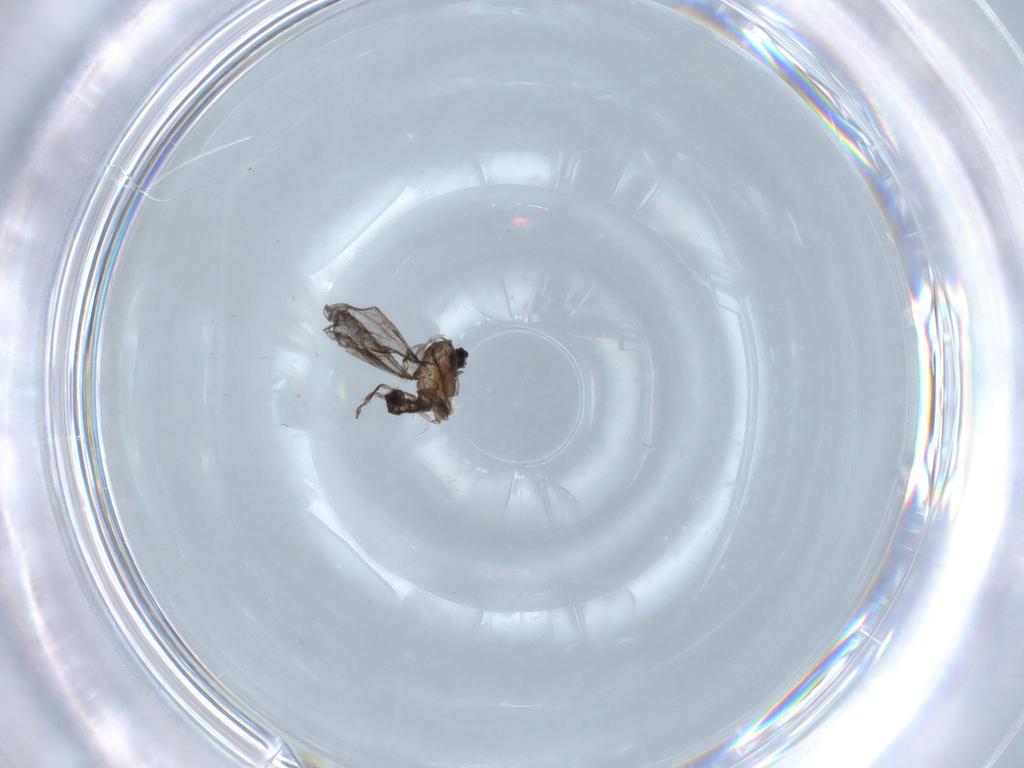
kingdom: Animalia
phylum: Arthropoda
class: Insecta
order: Diptera
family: Cecidomyiidae
